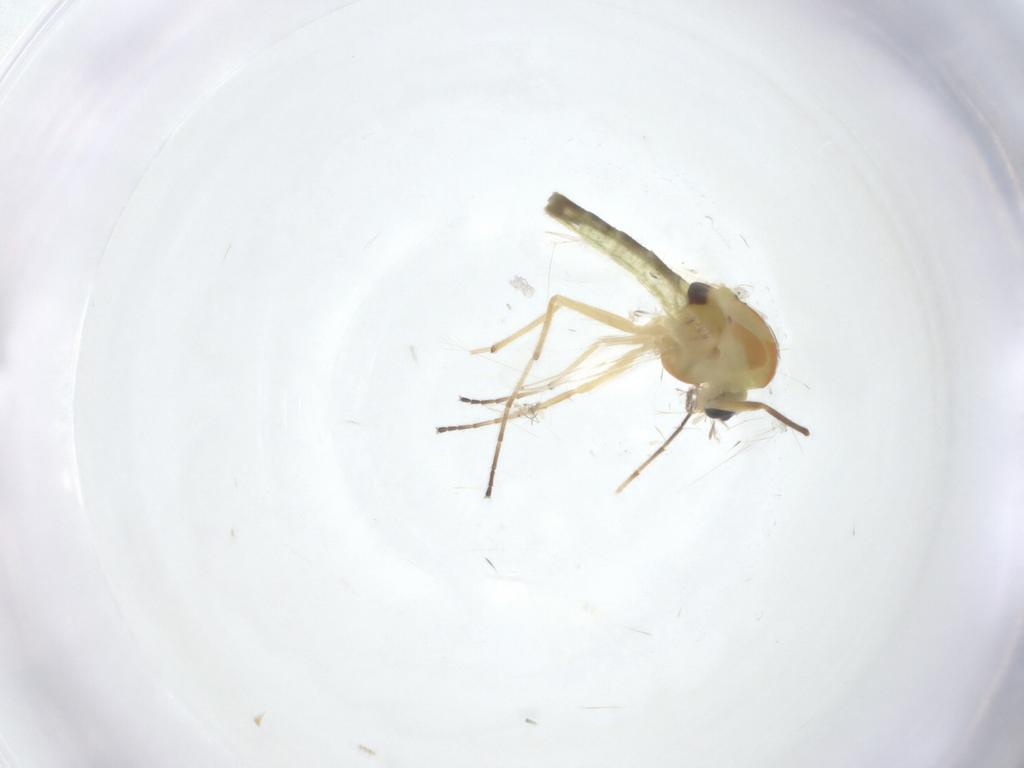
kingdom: Animalia
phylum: Arthropoda
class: Insecta
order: Diptera
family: Chironomidae
